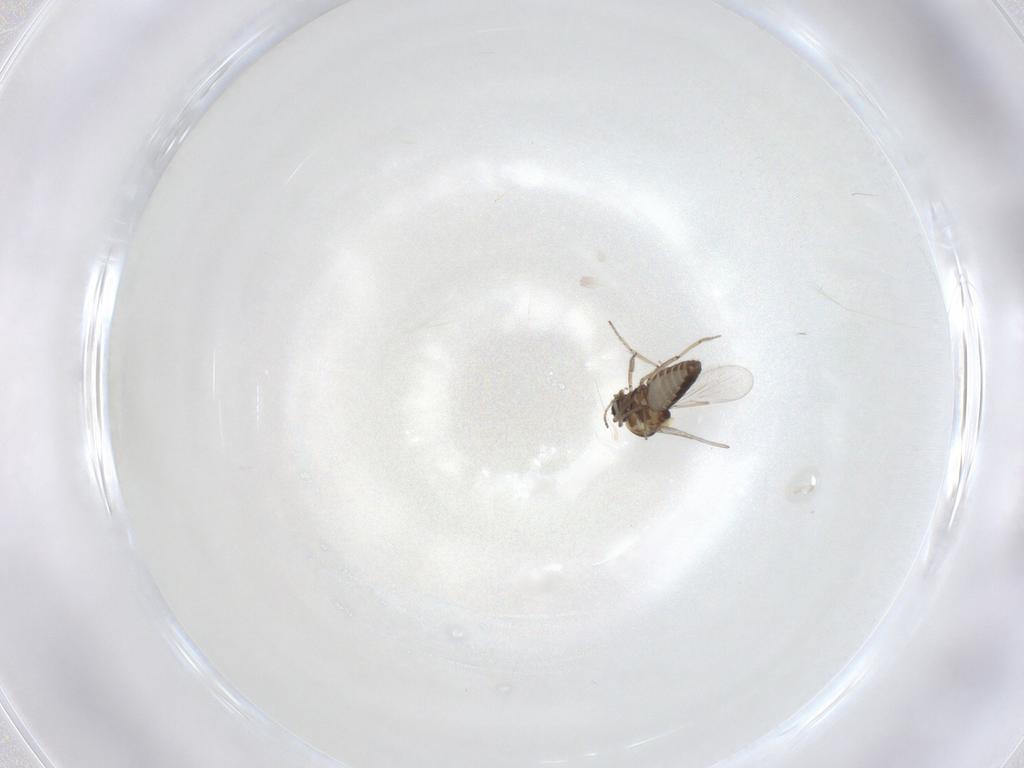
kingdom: Animalia
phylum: Arthropoda
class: Insecta
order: Diptera
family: Ceratopogonidae
